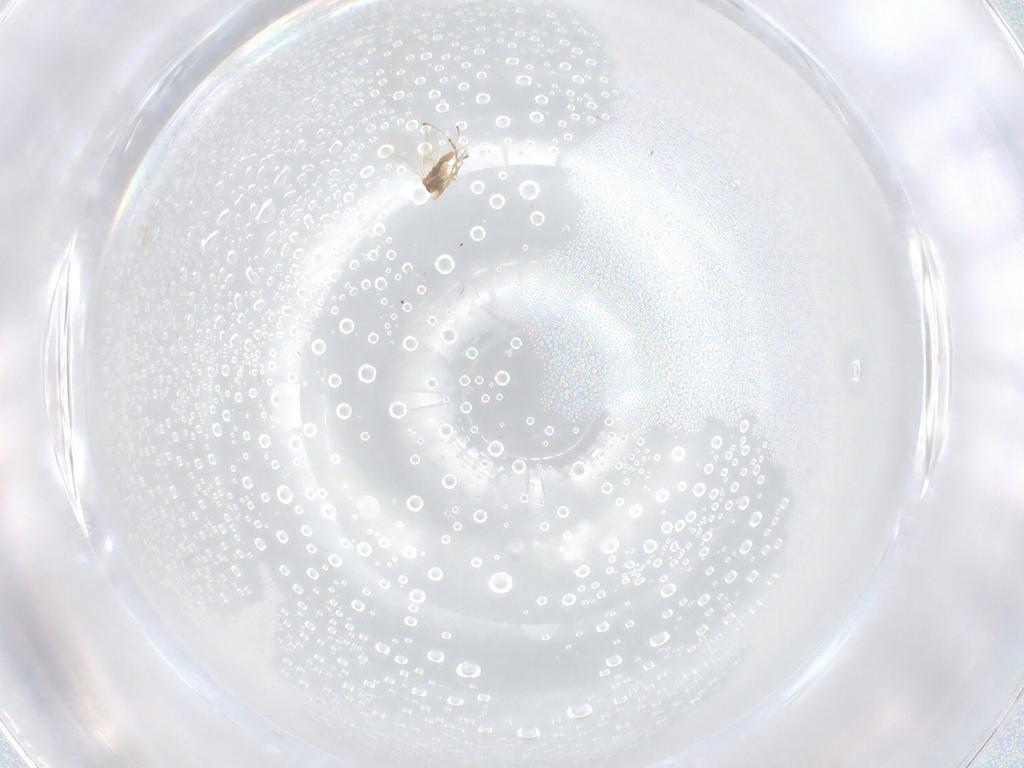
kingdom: Animalia
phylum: Arthropoda
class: Insecta
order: Diptera
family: Cecidomyiidae
